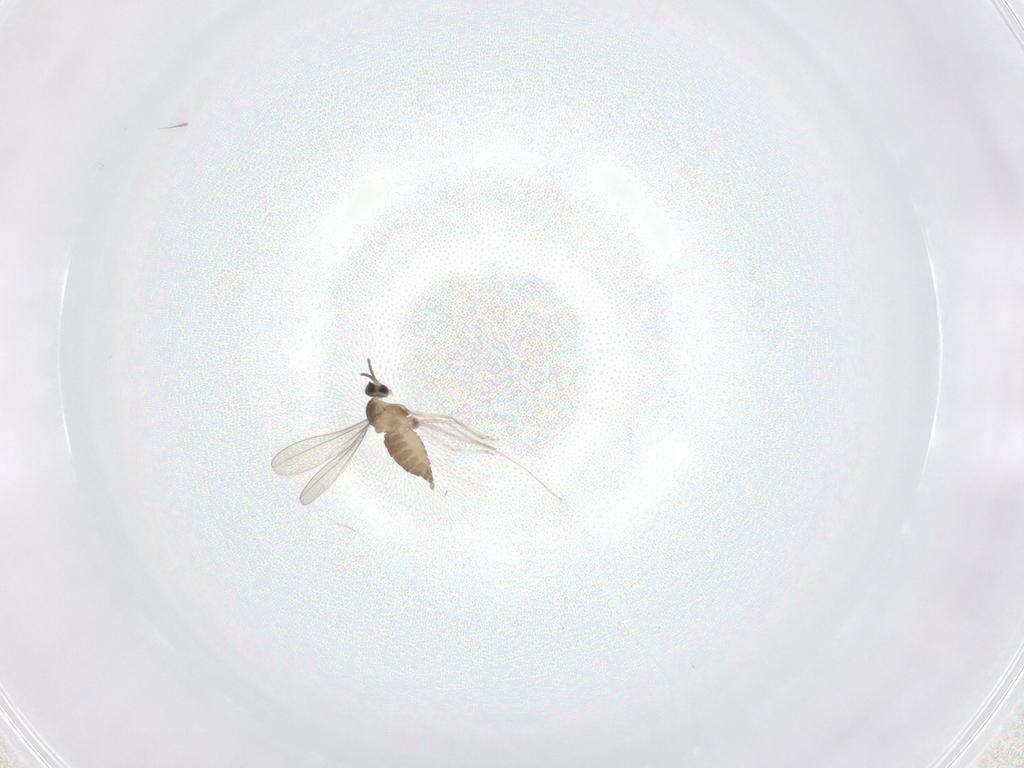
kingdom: Animalia
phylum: Arthropoda
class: Insecta
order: Diptera
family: Cecidomyiidae
